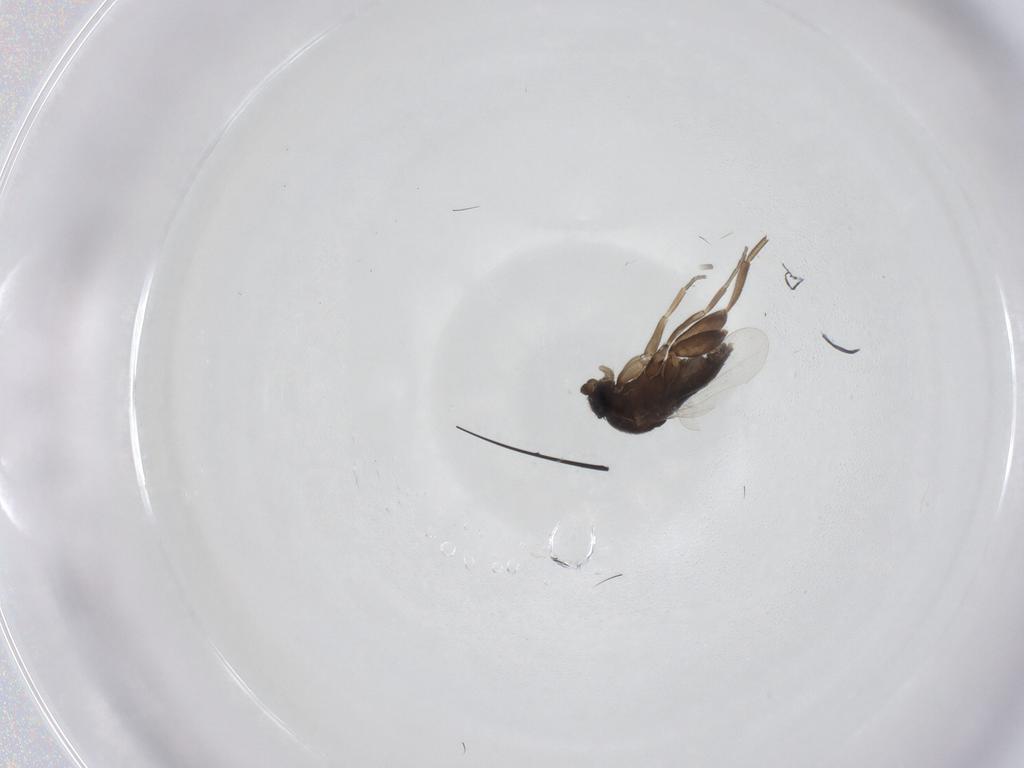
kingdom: Animalia
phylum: Arthropoda
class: Insecta
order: Diptera
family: Phoridae
